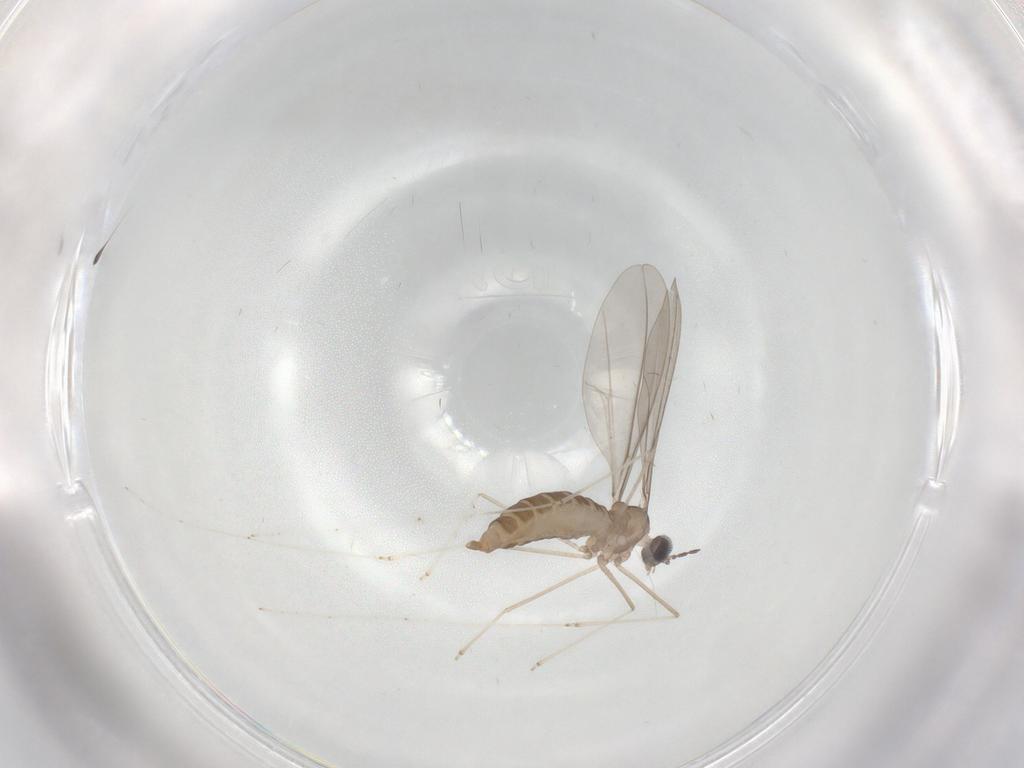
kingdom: Animalia
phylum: Arthropoda
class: Insecta
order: Diptera
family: Cecidomyiidae
